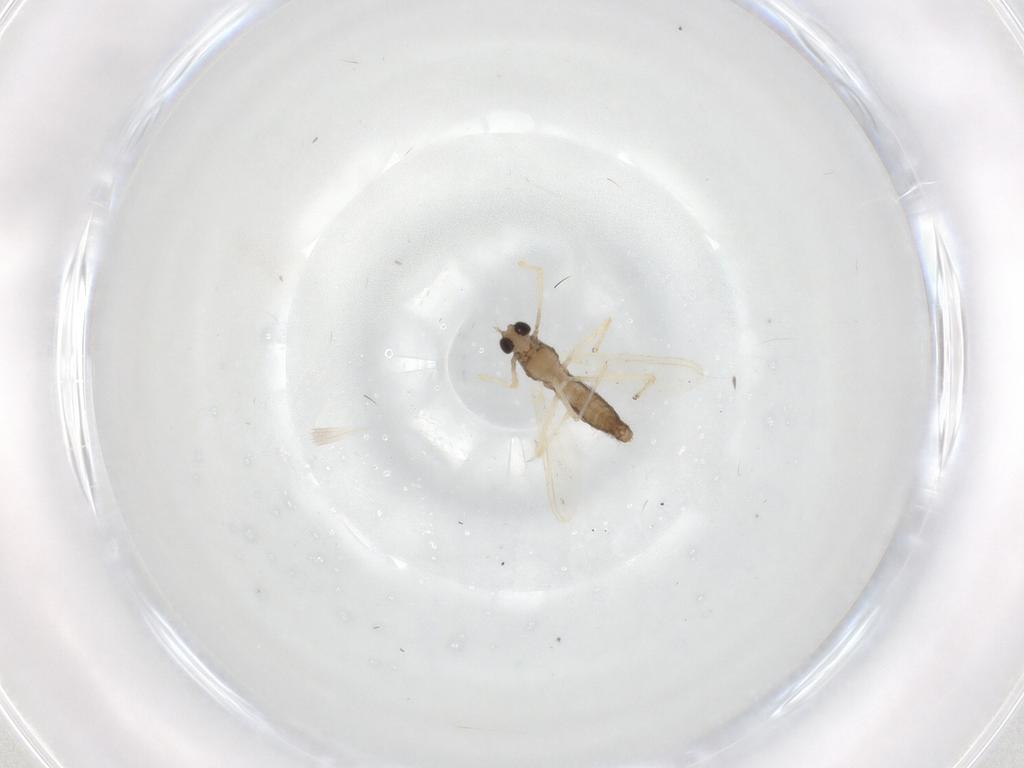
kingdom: Animalia
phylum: Arthropoda
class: Insecta
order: Diptera
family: Chironomidae
